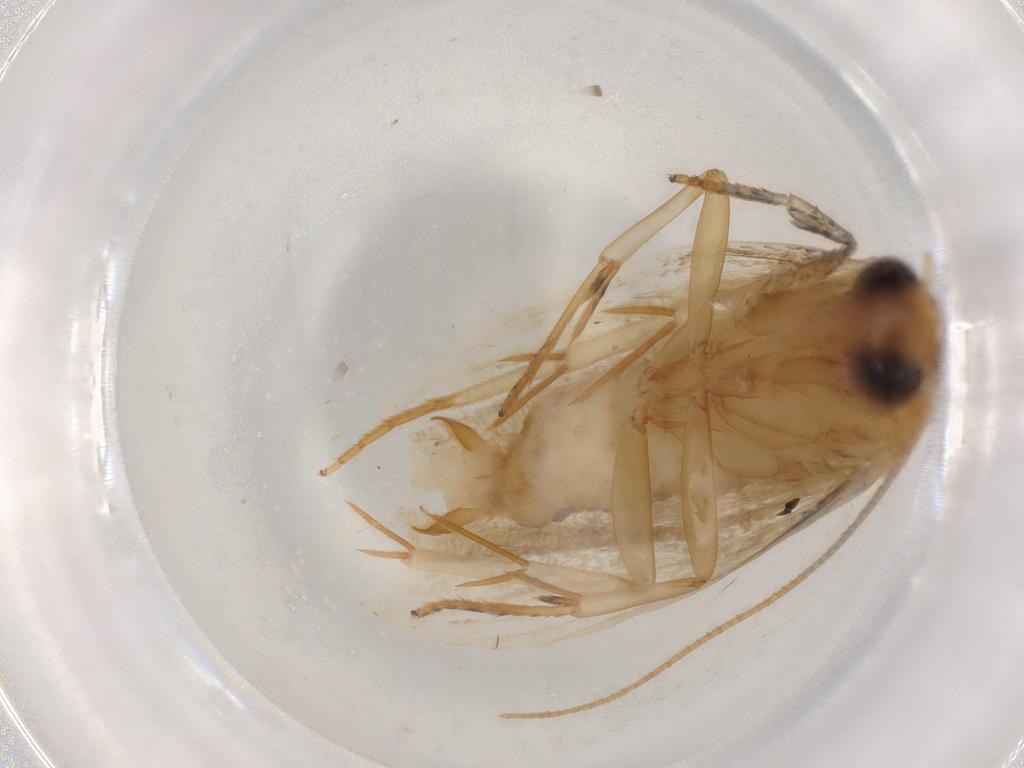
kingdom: Animalia
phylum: Arthropoda
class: Insecta
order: Lepidoptera
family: Depressariidae
